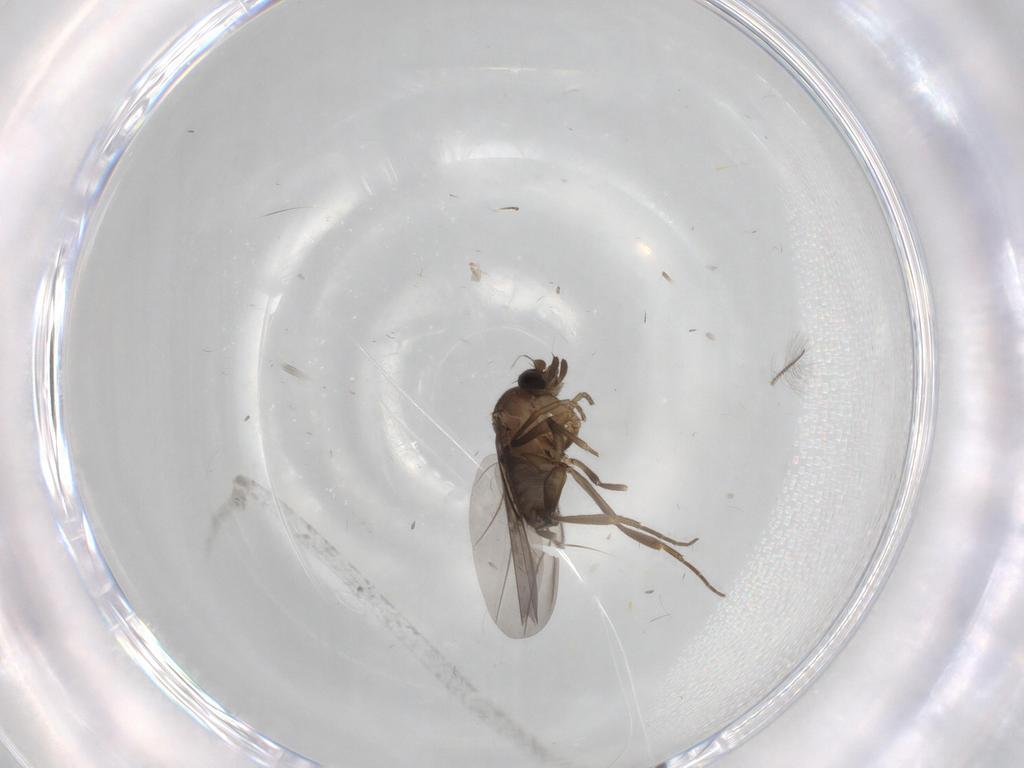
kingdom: Animalia
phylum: Arthropoda
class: Insecta
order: Diptera
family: Phoridae
